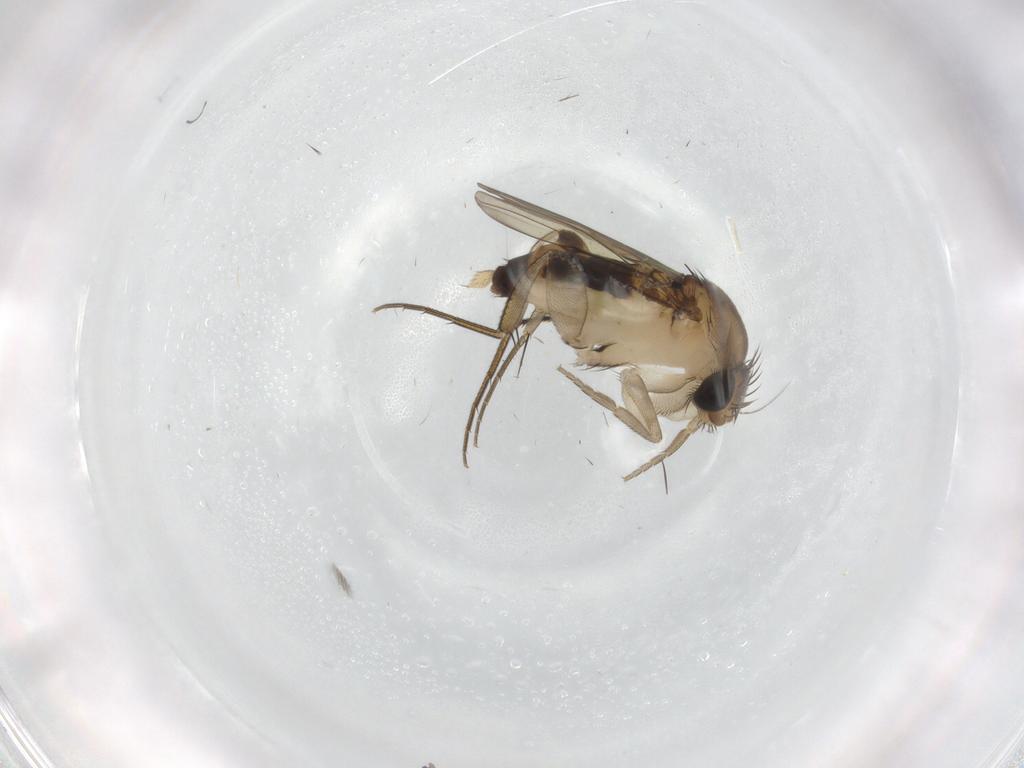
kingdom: Animalia
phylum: Arthropoda
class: Insecta
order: Diptera
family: Phoridae
